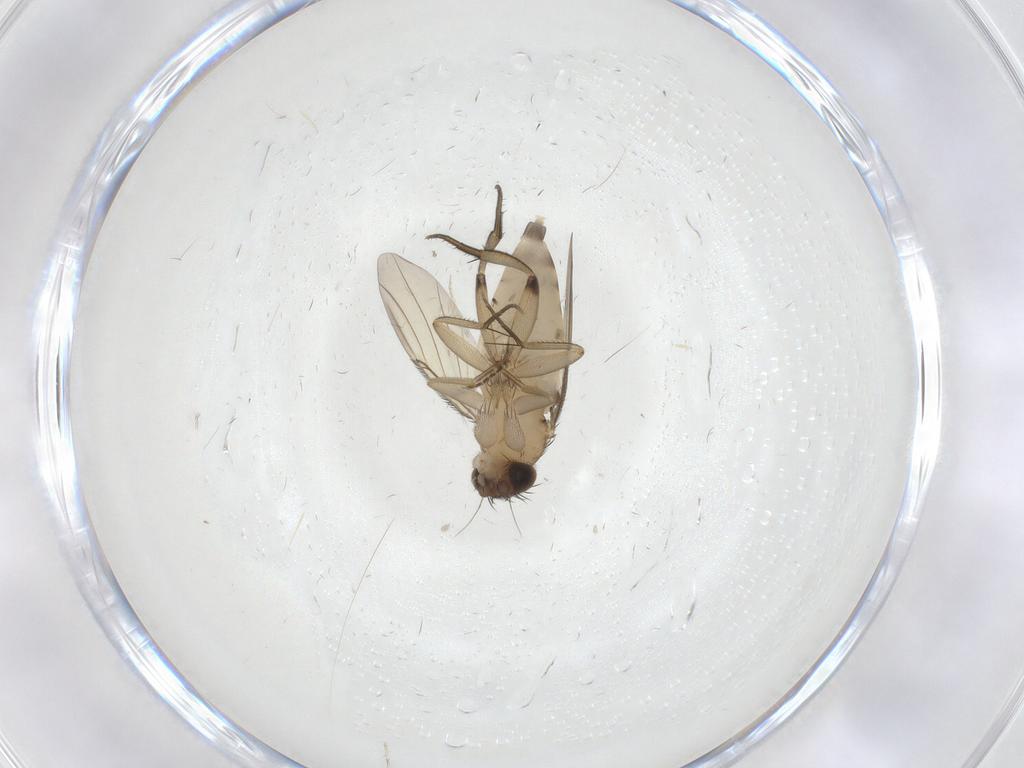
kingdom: Animalia
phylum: Arthropoda
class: Insecta
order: Diptera
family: Phoridae
